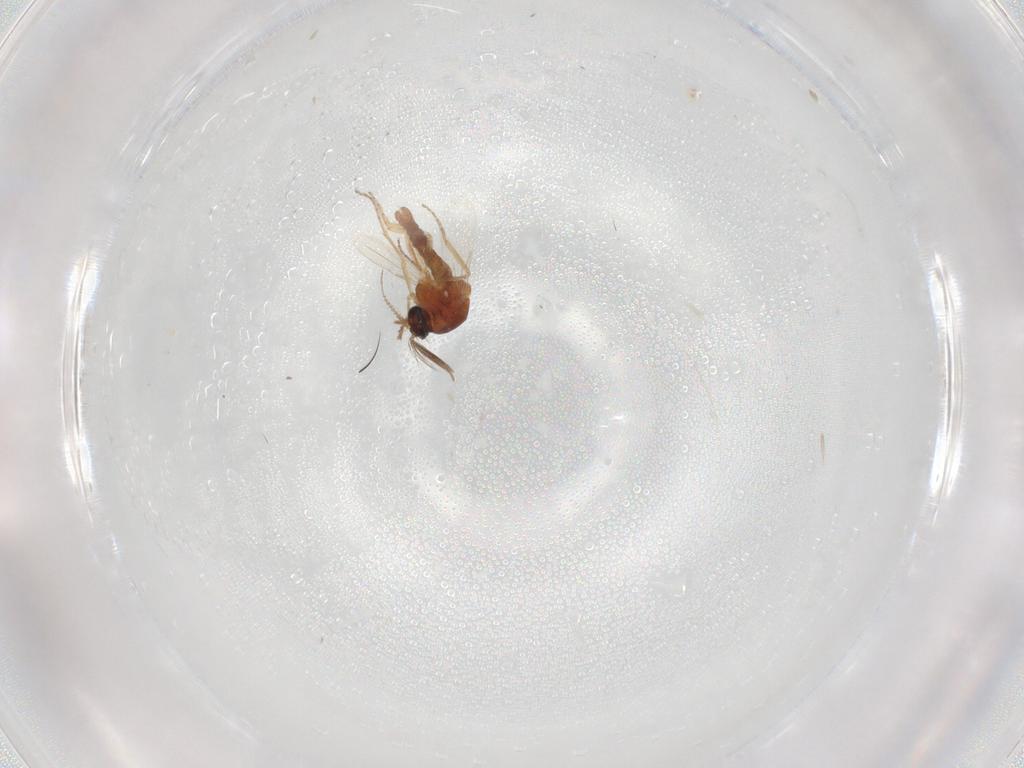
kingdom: Animalia
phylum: Arthropoda
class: Insecta
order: Diptera
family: Ceratopogonidae
